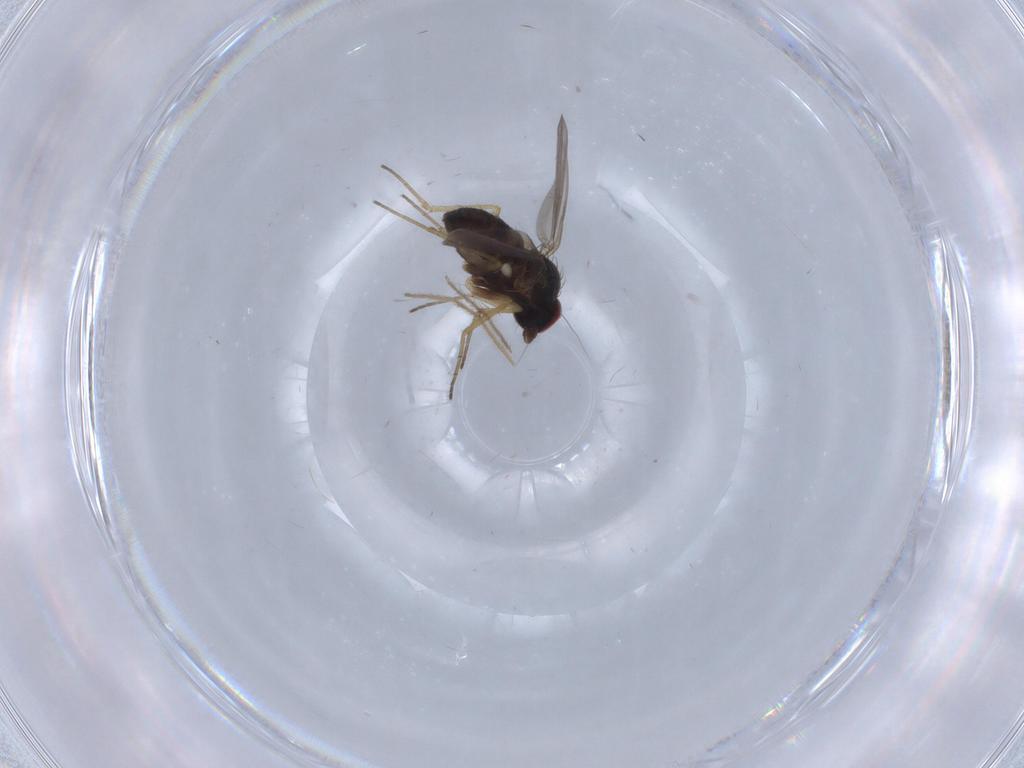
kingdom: Animalia
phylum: Arthropoda
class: Insecta
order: Diptera
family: Dolichopodidae
